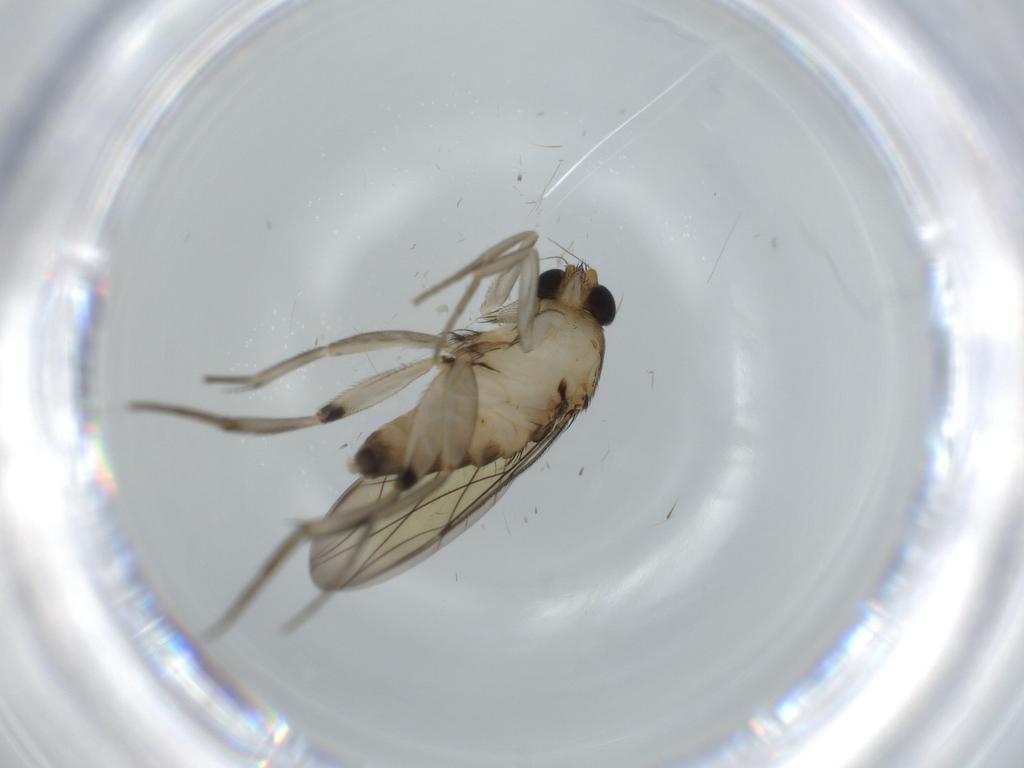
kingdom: Animalia
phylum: Arthropoda
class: Insecta
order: Diptera
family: Phoridae
